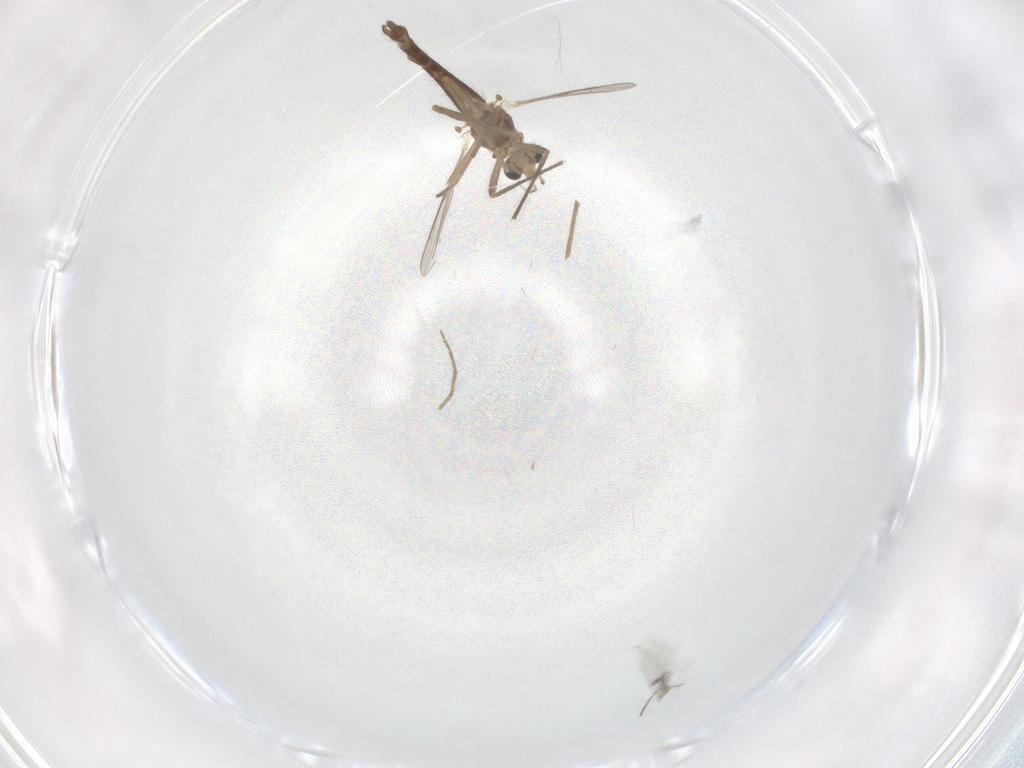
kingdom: Animalia
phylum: Arthropoda
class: Insecta
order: Diptera
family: Chironomidae
